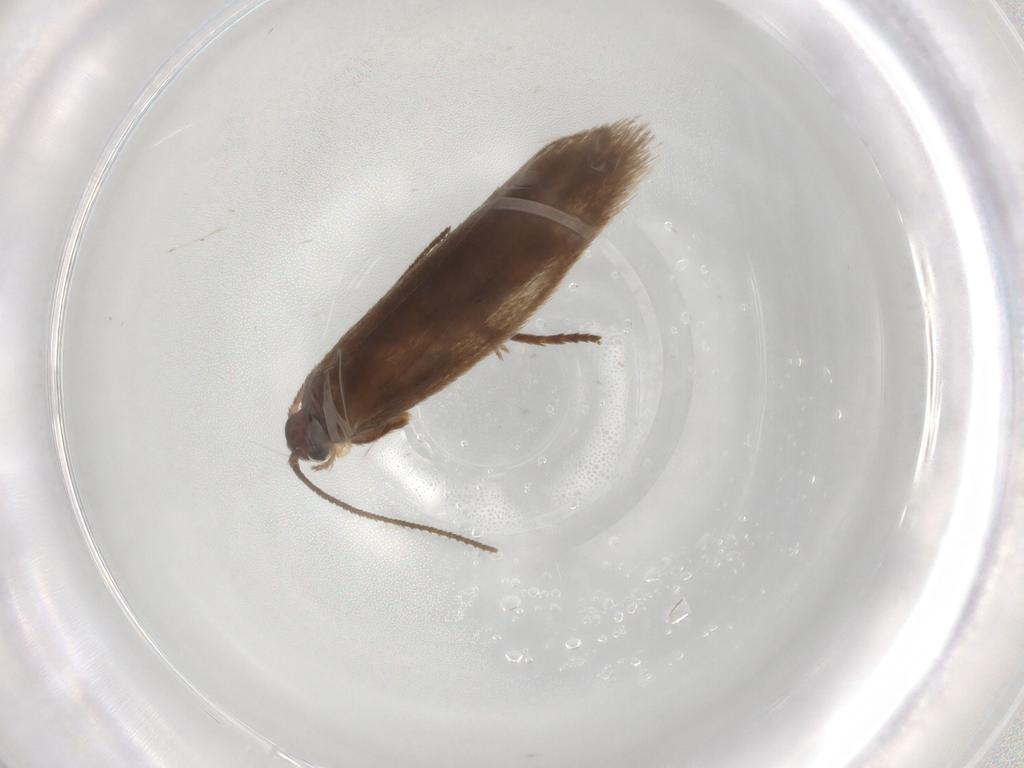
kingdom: Animalia
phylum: Arthropoda
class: Insecta
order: Lepidoptera
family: Limacodidae
